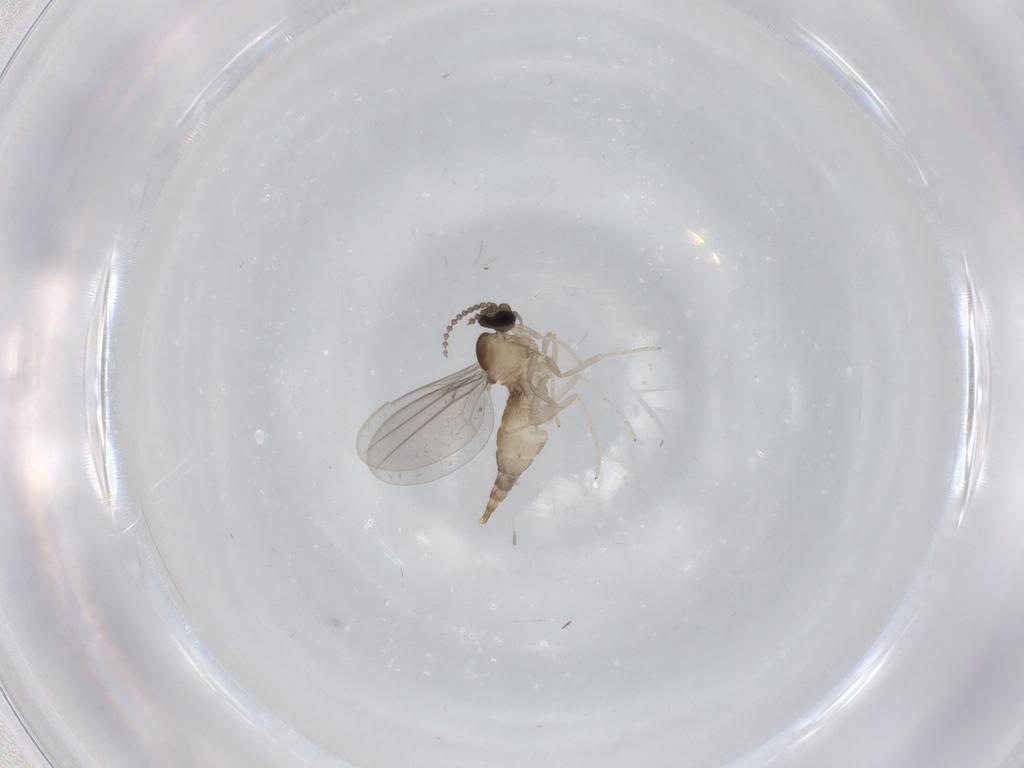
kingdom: Animalia
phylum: Arthropoda
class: Insecta
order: Diptera
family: Cecidomyiidae
